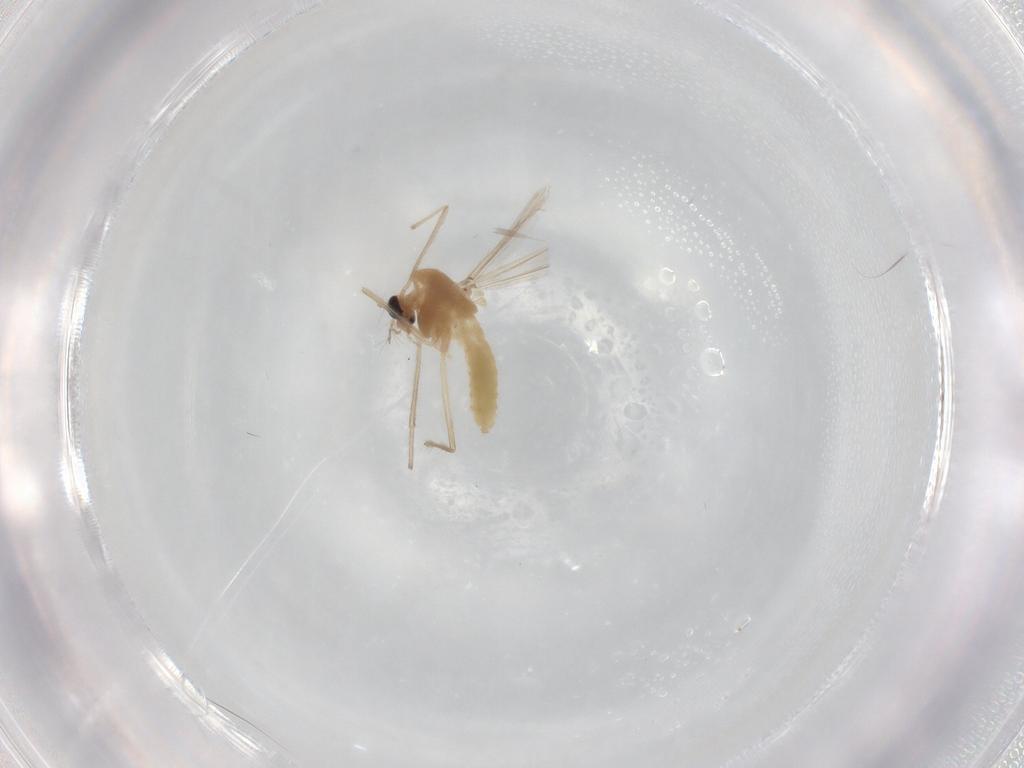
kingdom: Animalia
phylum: Arthropoda
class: Insecta
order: Diptera
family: Chironomidae
